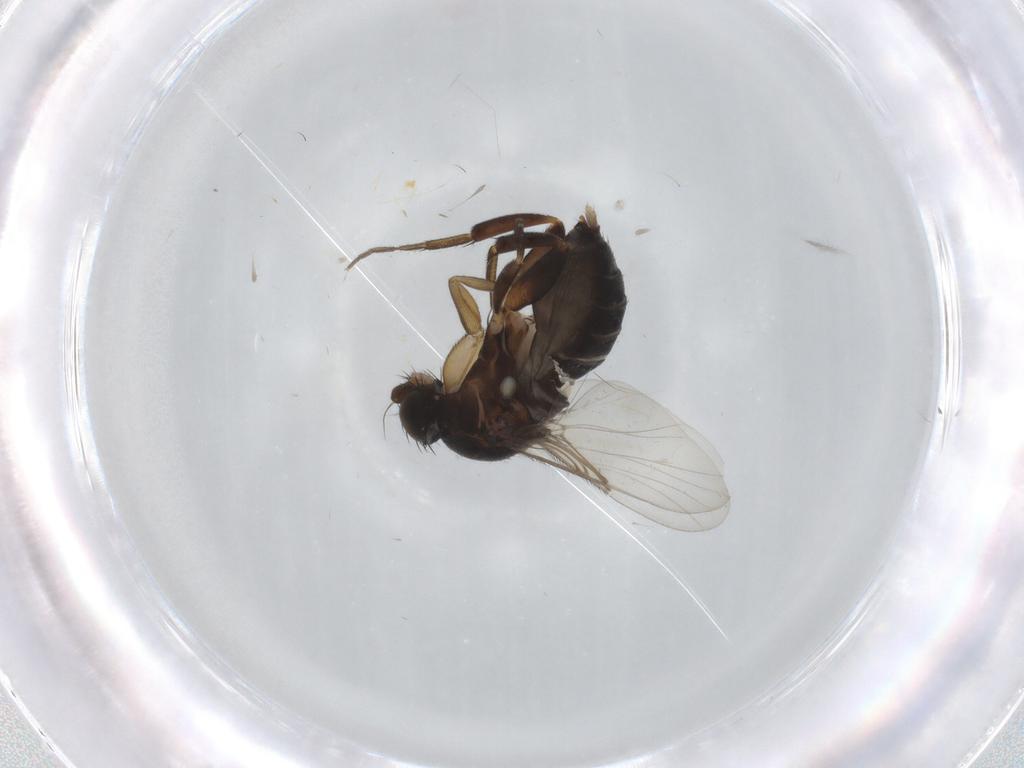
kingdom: Animalia
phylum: Arthropoda
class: Insecta
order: Diptera
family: Phoridae
